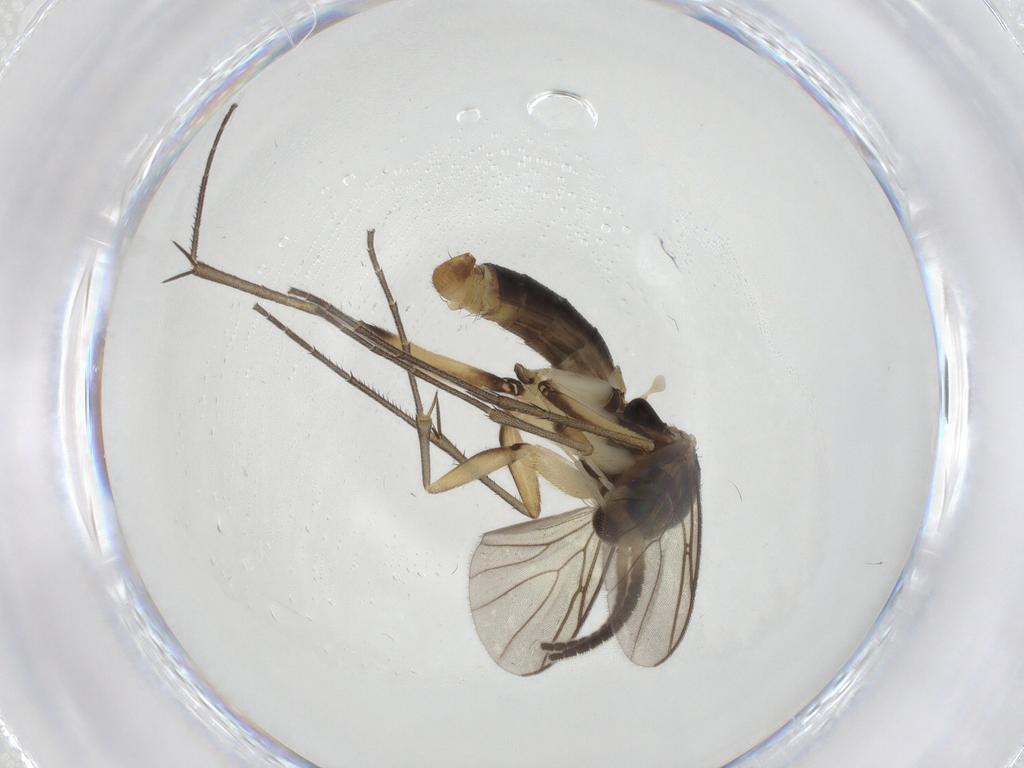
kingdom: Animalia
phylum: Arthropoda
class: Insecta
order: Diptera
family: Mycetophilidae
